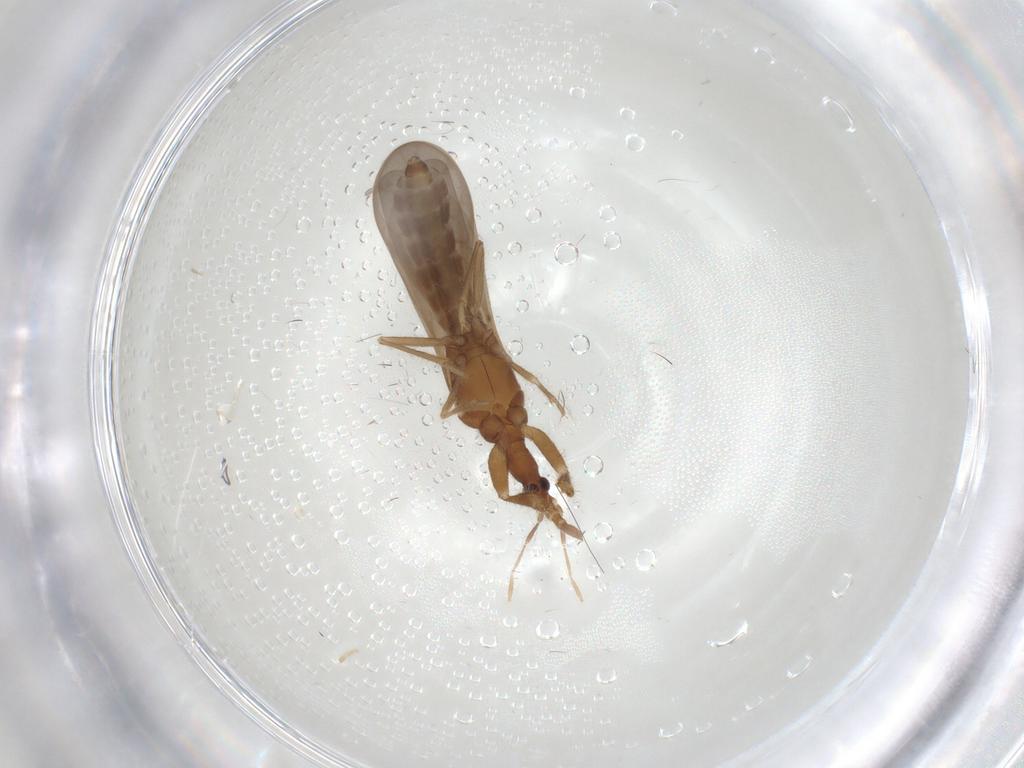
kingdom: Animalia
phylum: Arthropoda
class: Insecta
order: Hemiptera
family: Enicocephalidae
